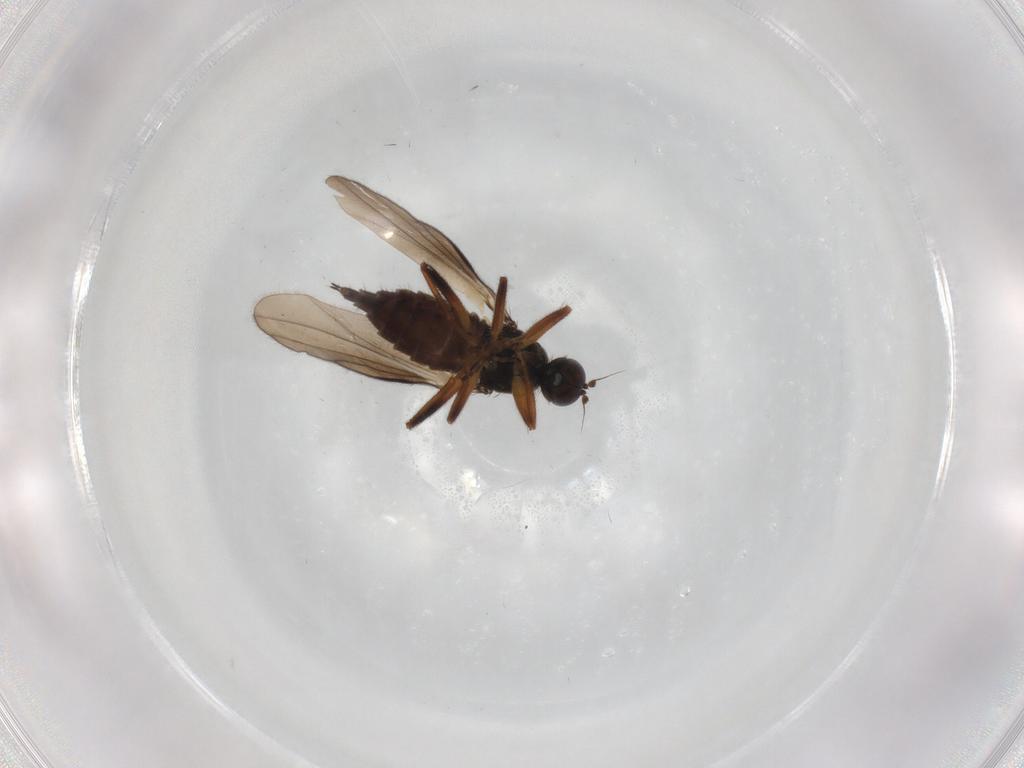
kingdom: Animalia
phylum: Arthropoda
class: Insecta
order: Diptera
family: Hybotidae
